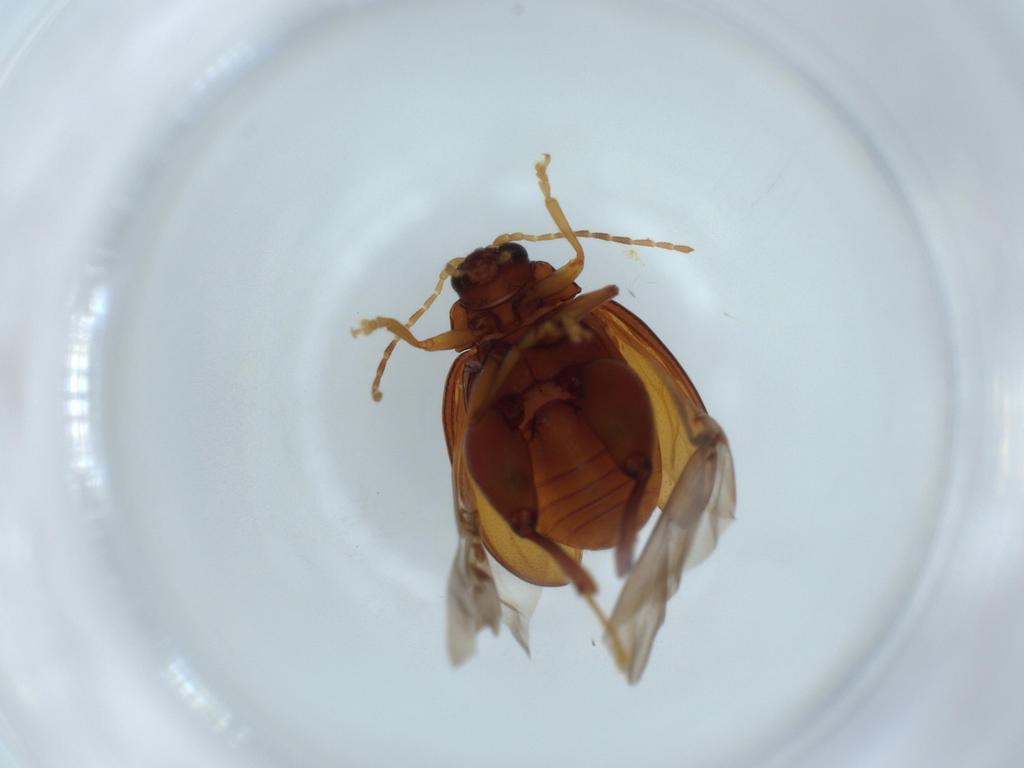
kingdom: Animalia
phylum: Arthropoda
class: Insecta
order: Coleoptera
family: Chrysomelidae
